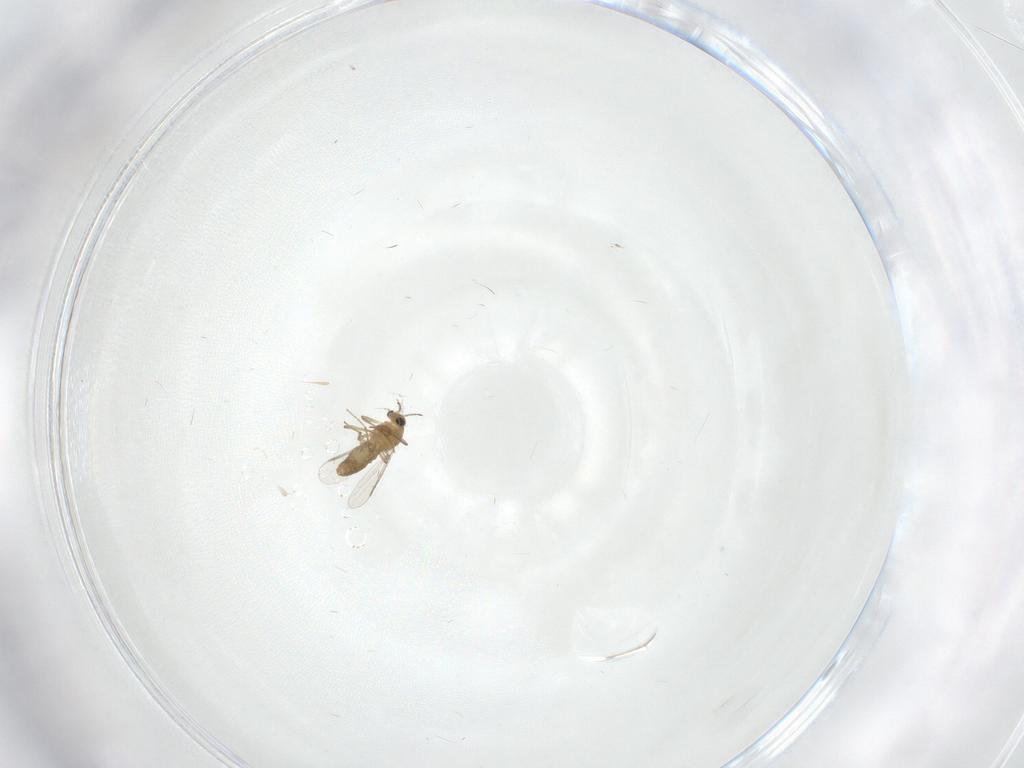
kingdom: Animalia
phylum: Arthropoda
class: Insecta
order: Diptera
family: Chironomidae
